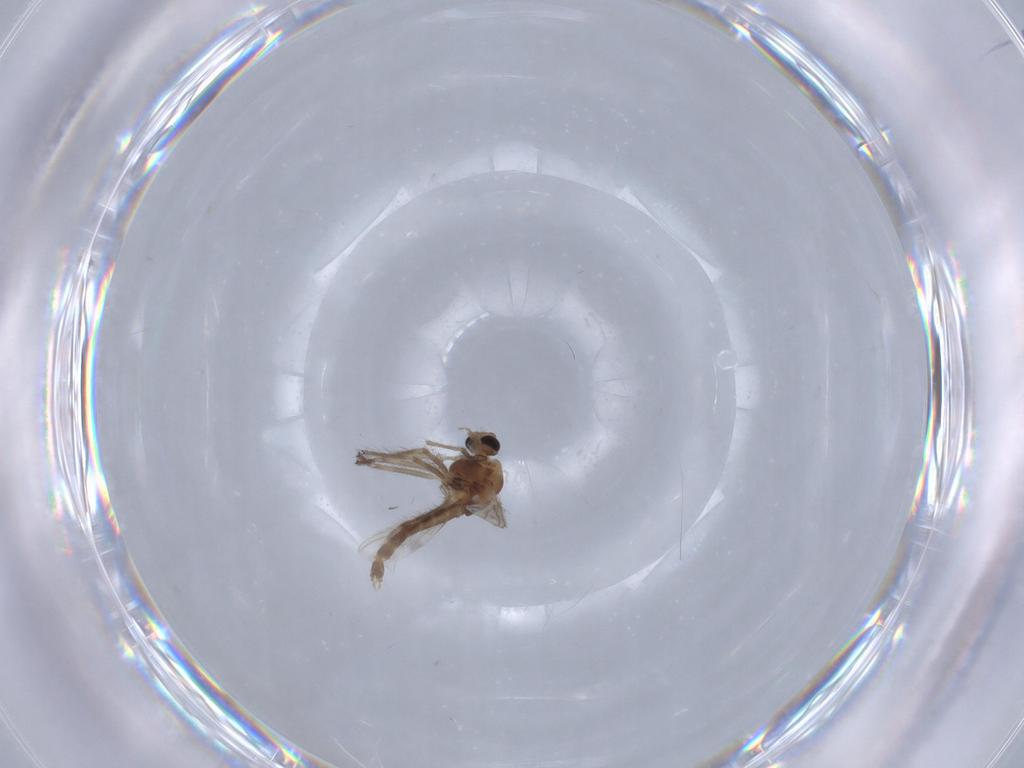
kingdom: Animalia
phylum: Arthropoda
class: Insecta
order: Diptera
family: Chironomidae
